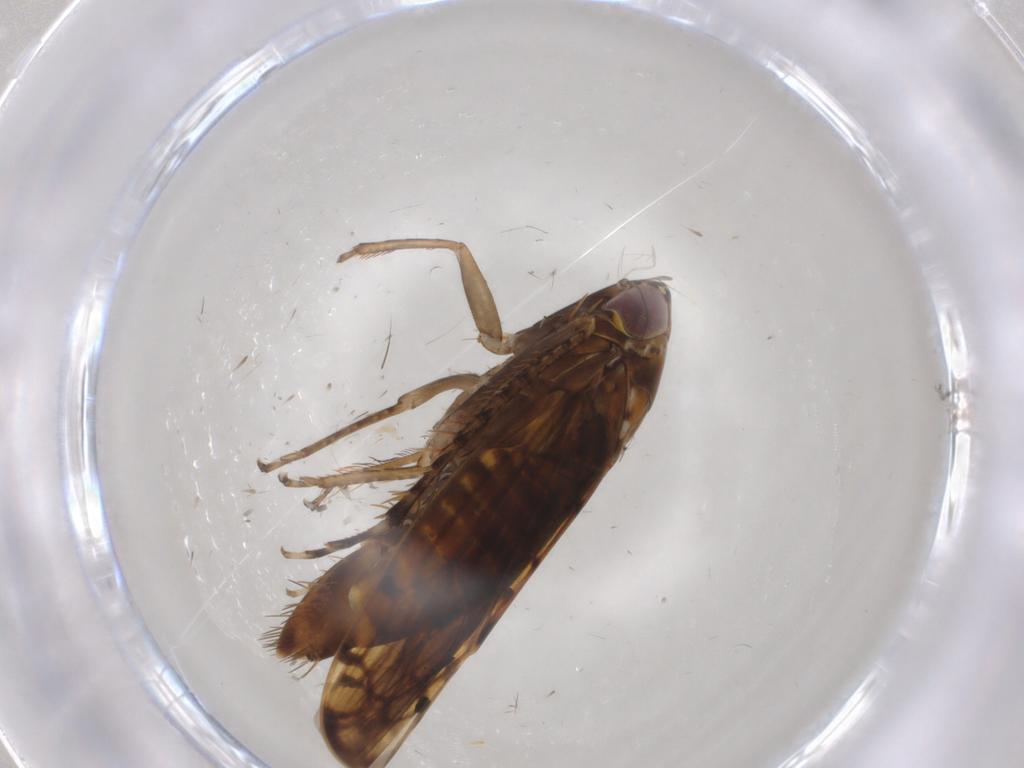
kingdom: Animalia
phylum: Arthropoda
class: Insecta
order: Hemiptera
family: Cicadellidae
